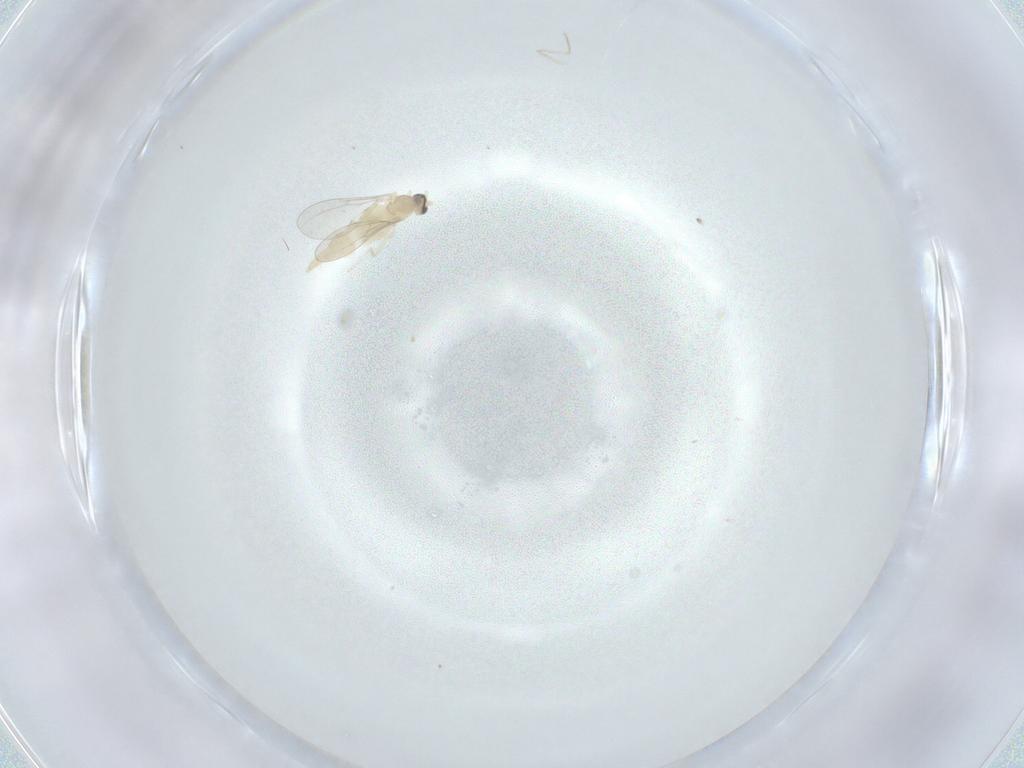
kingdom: Animalia
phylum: Arthropoda
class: Insecta
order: Diptera
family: Cecidomyiidae
